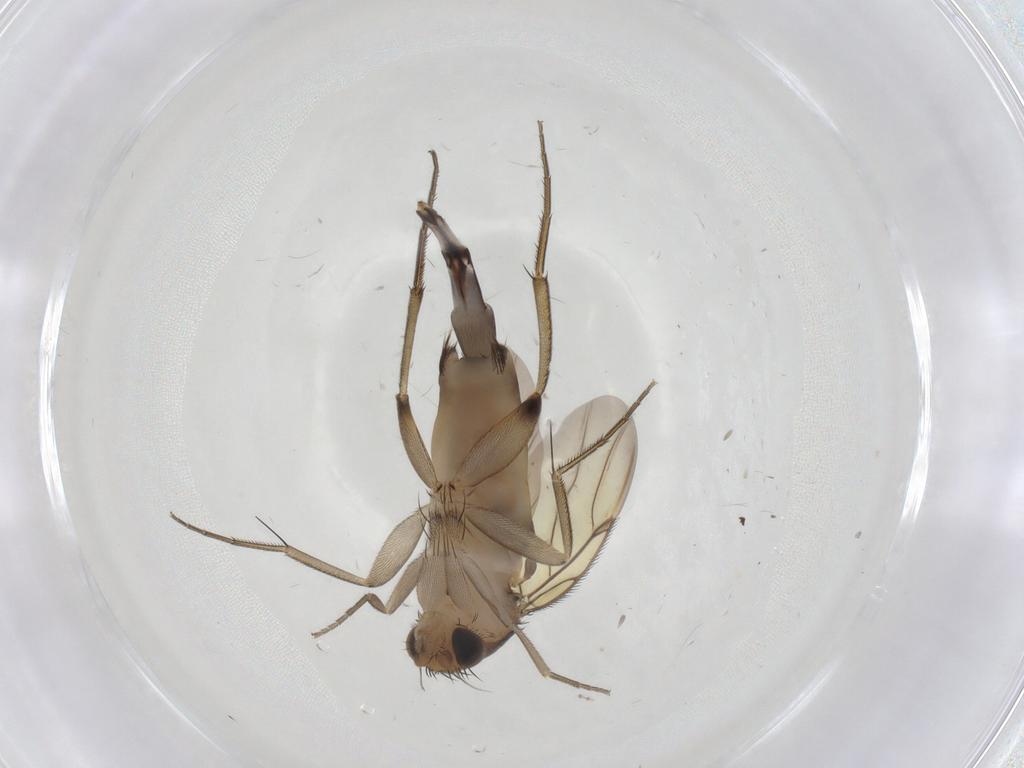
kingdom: Animalia
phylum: Arthropoda
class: Insecta
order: Diptera
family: Phoridae
